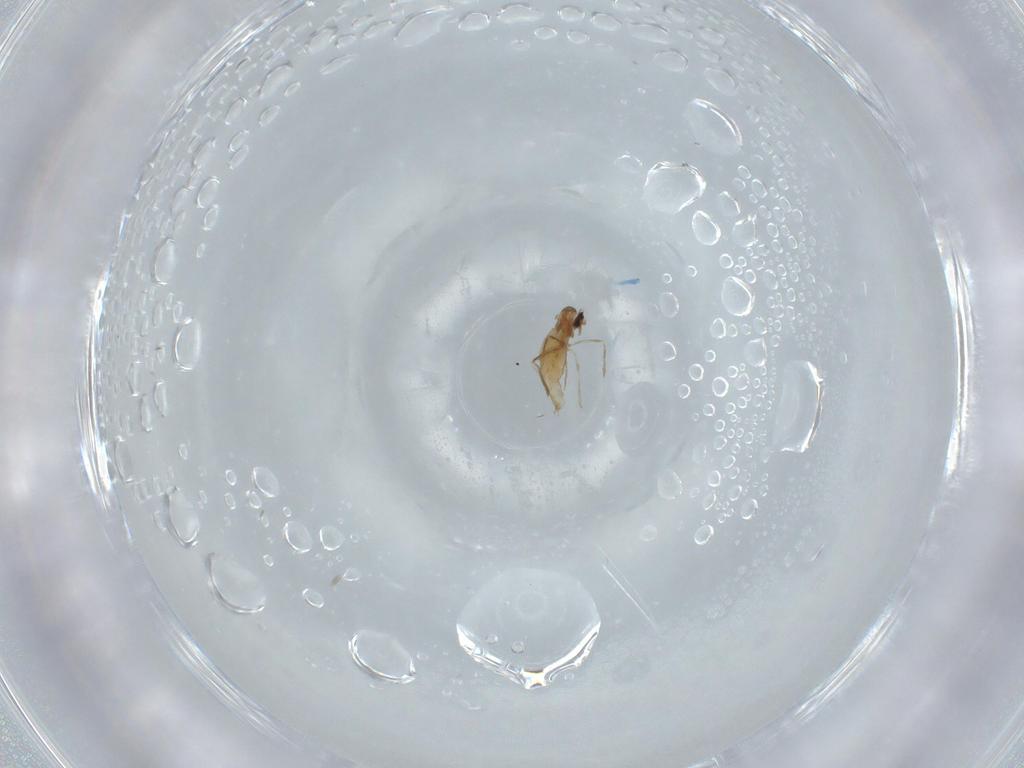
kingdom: Animalia
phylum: Arthropoda
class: Insecta
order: Diptera
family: Cecidomyiidae
